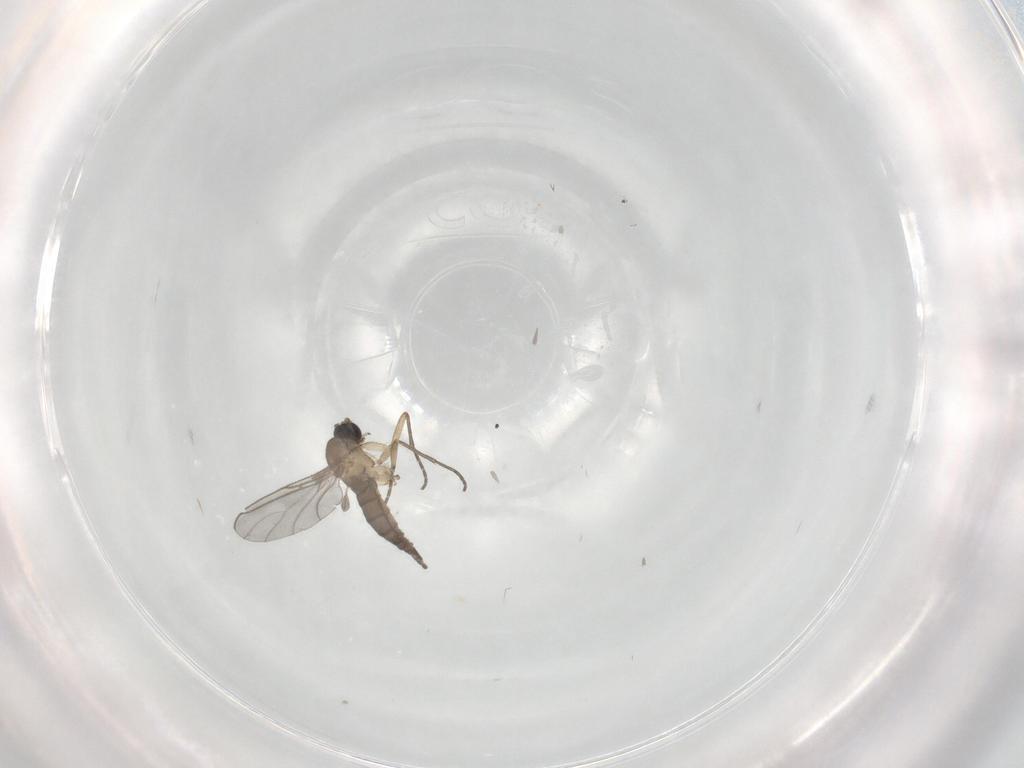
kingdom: Animalia
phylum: Arthropoda
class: Insecta
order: Diptera
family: Sciaridae
